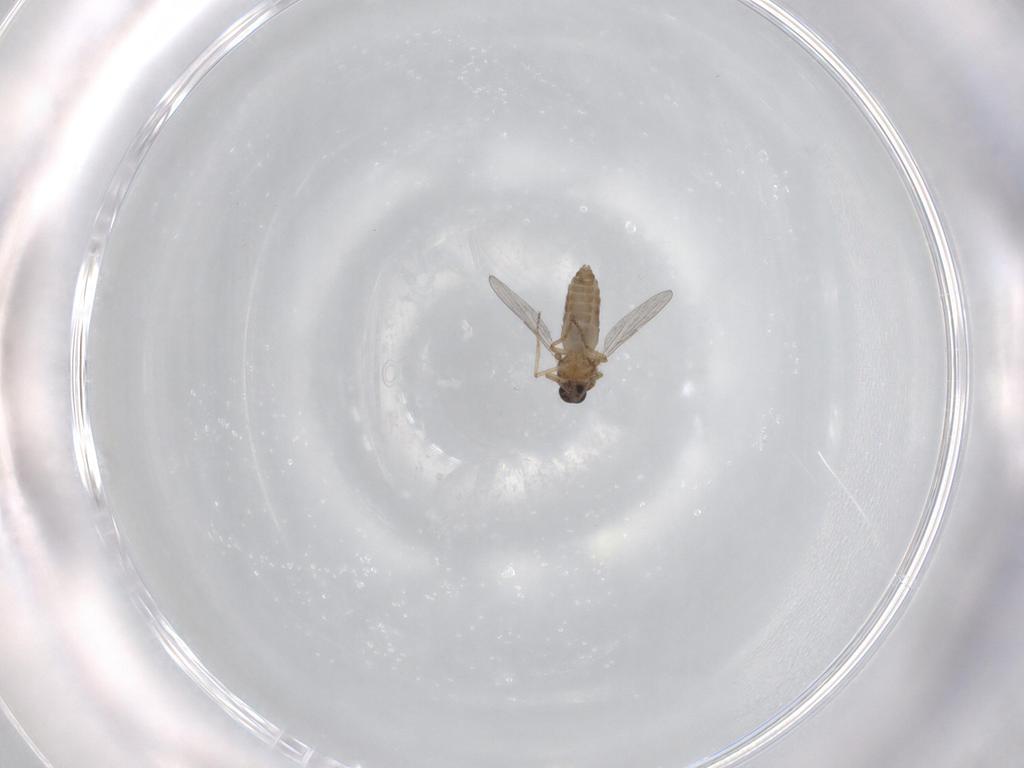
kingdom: Animalia
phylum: Arthropoda
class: Insecta
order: Diptera
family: Ceratopogonidae
